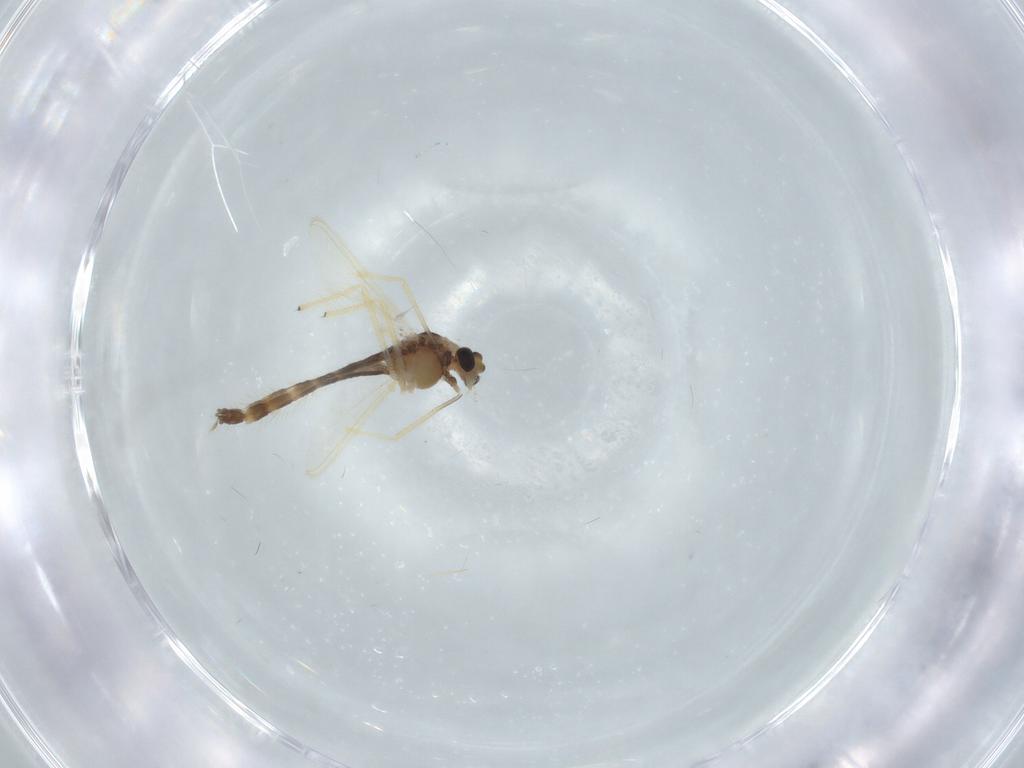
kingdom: Animalia
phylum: Arthropoda
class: Insecta
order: Diptera
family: Chironomidae
